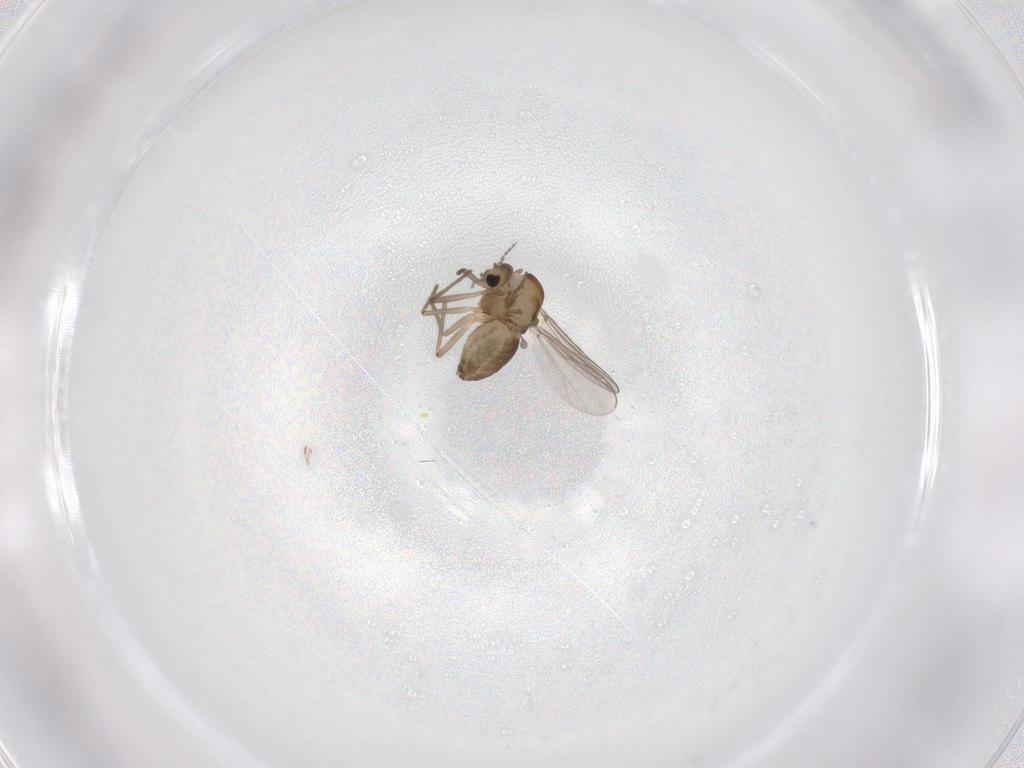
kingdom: Animalia
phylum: Arthropoda
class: Insecta
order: Diptera
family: Chironomidae
